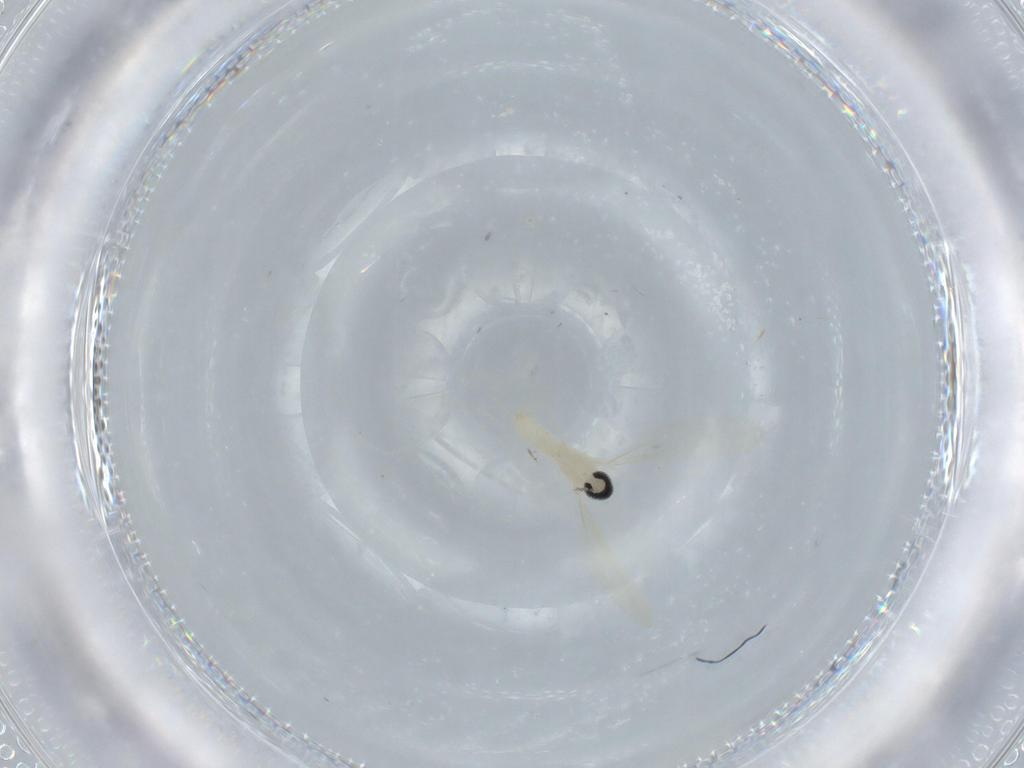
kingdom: Animalia
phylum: Arthropoda
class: Insecta
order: Diptera
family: Cecidomyiidae
